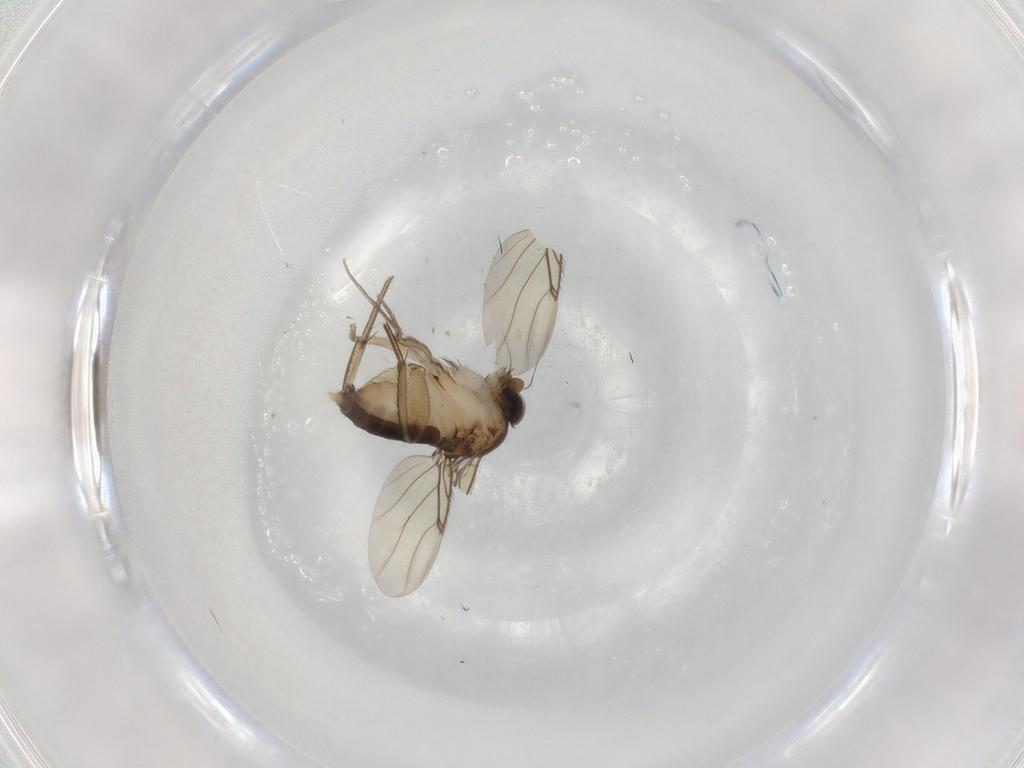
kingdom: Animalia
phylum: Arthropoda
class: Insecta
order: Diptera
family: Phoridae
